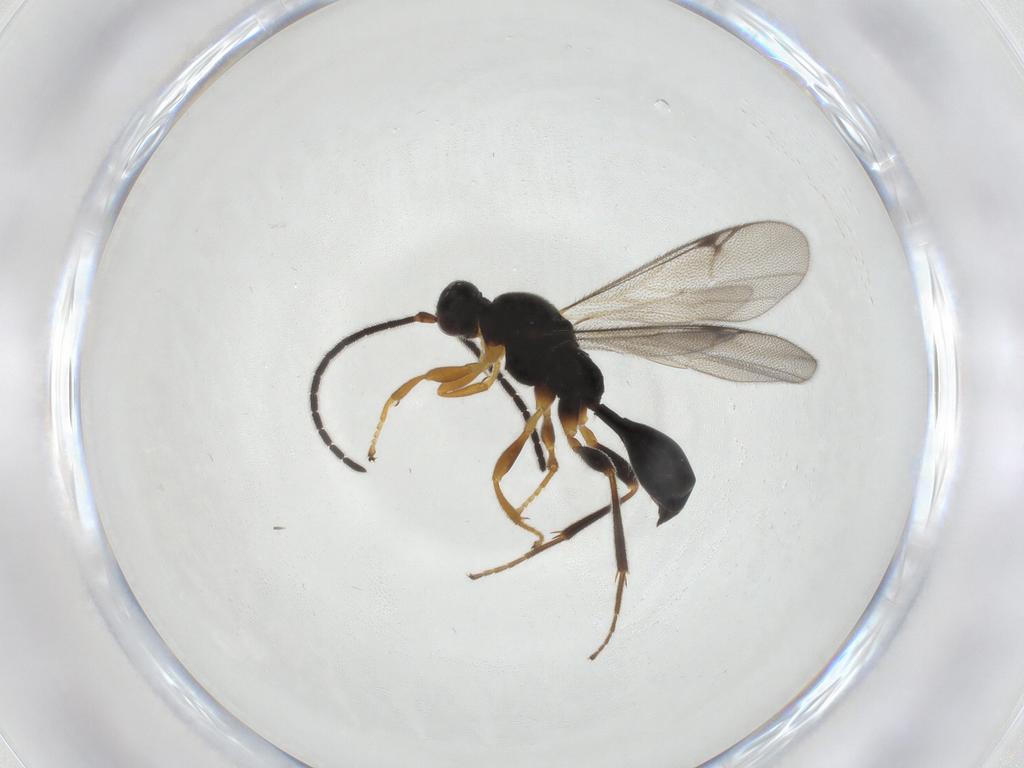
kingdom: Animalia
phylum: Arthropoda
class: Insecta
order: Hymenoptera
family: Proctotrupidae
